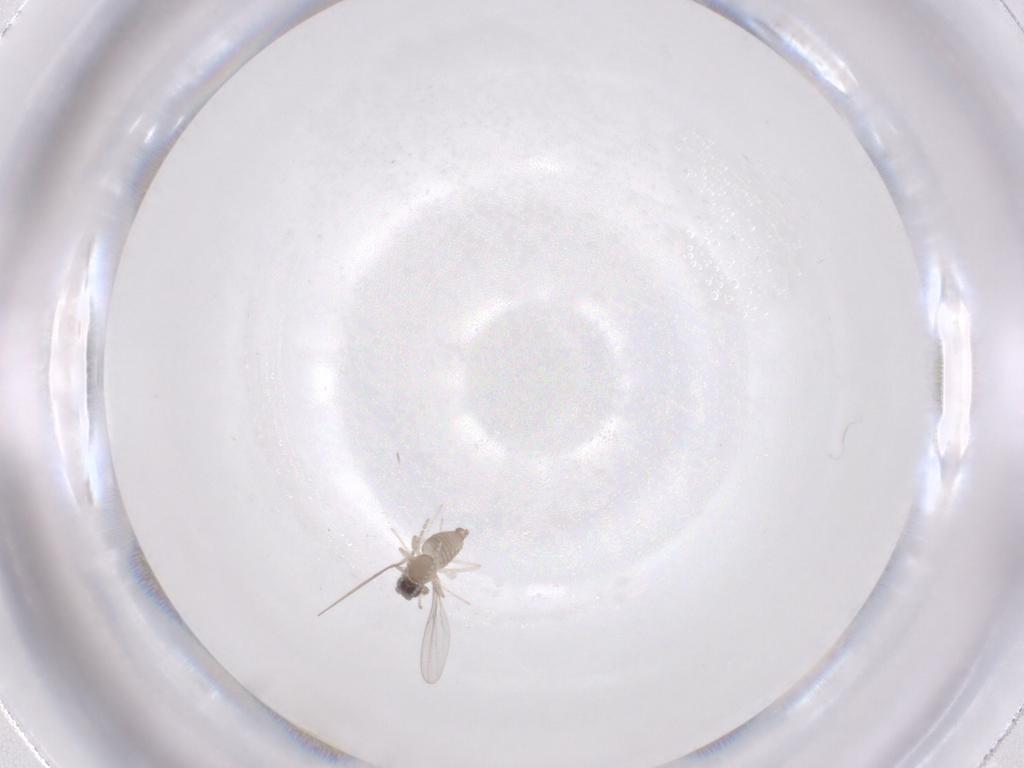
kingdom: Animalia
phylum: Arthropoda
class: Insecta
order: Diptera
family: Cecidomyiidae
